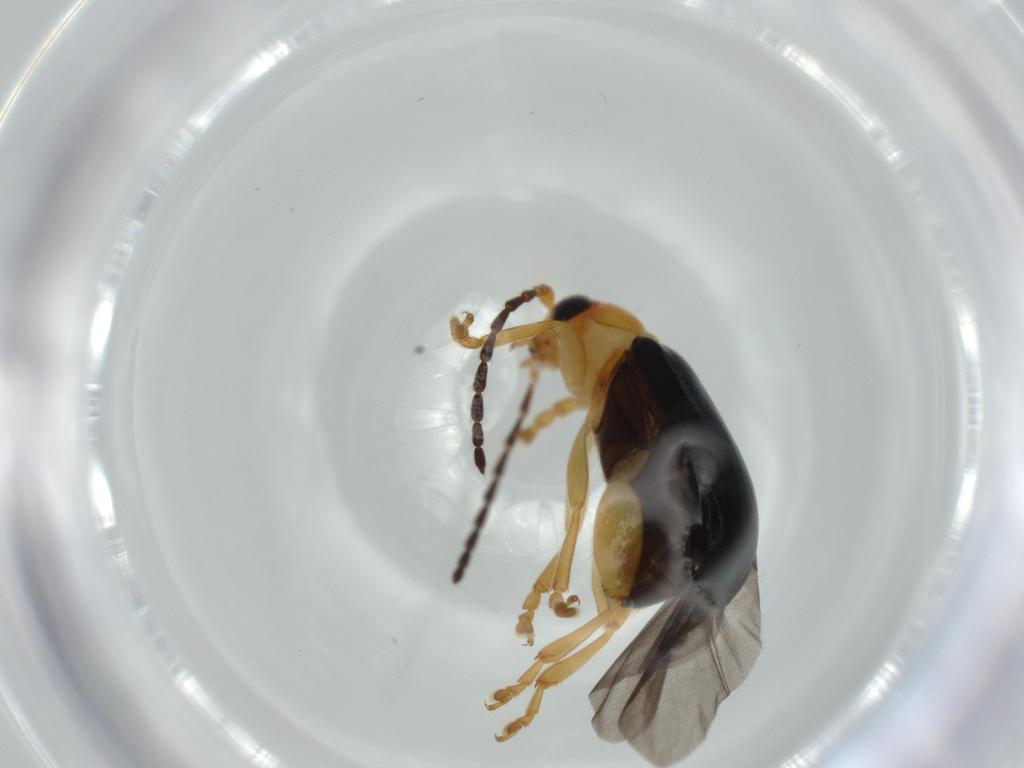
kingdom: Animalia
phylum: Arthropoda
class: Insecta
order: Coleoptera
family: Chrysomelidae
